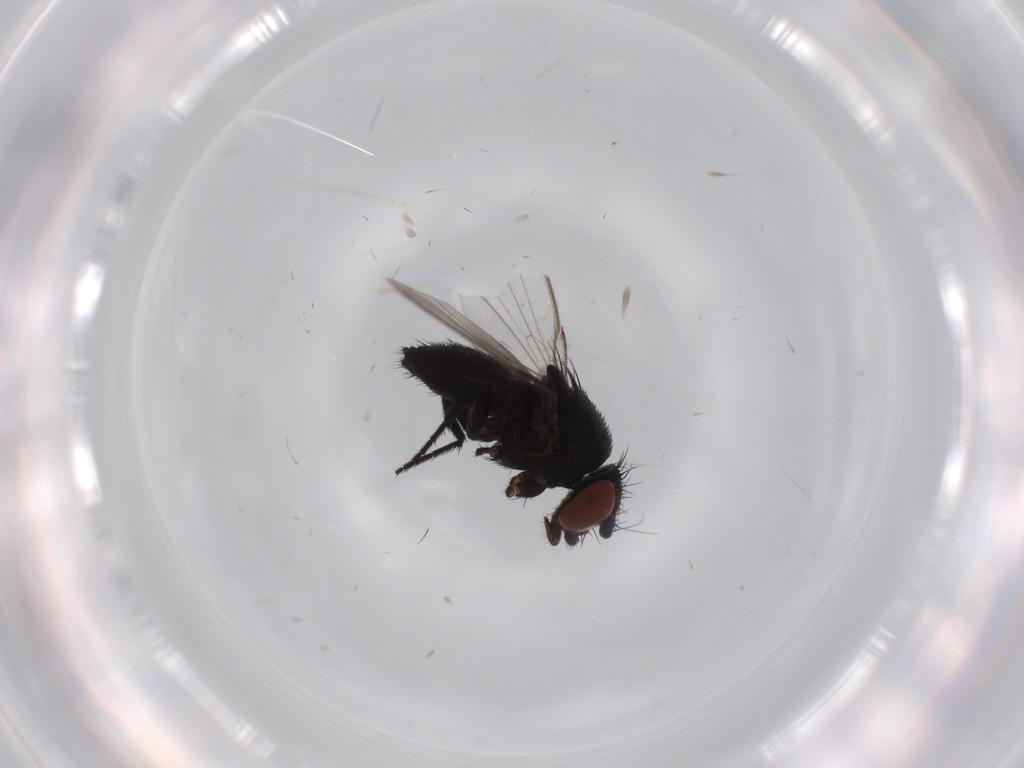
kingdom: Animalia
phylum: Arthropoda
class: Insecta
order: Diptera
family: Milichiidae
